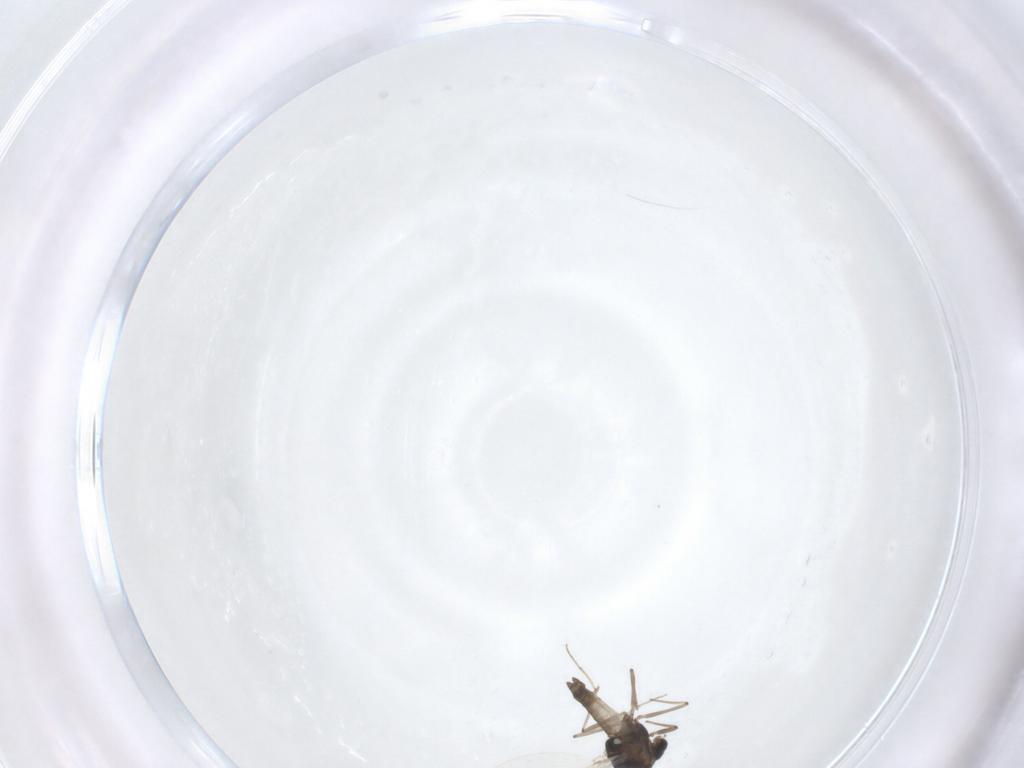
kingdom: Animalia
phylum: Arthropoda
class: Insecta
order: Diptera
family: Chironomidae
